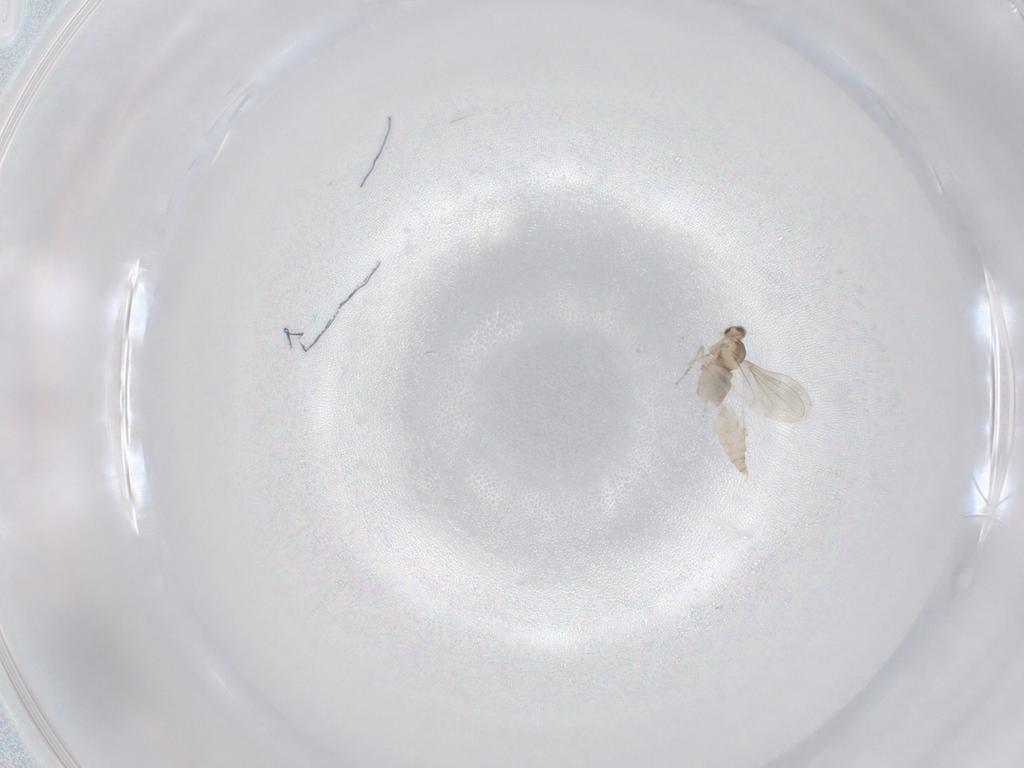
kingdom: Animalia
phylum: Arthropoda
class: Insecta
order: Diptera
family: Cecidomyiidae
